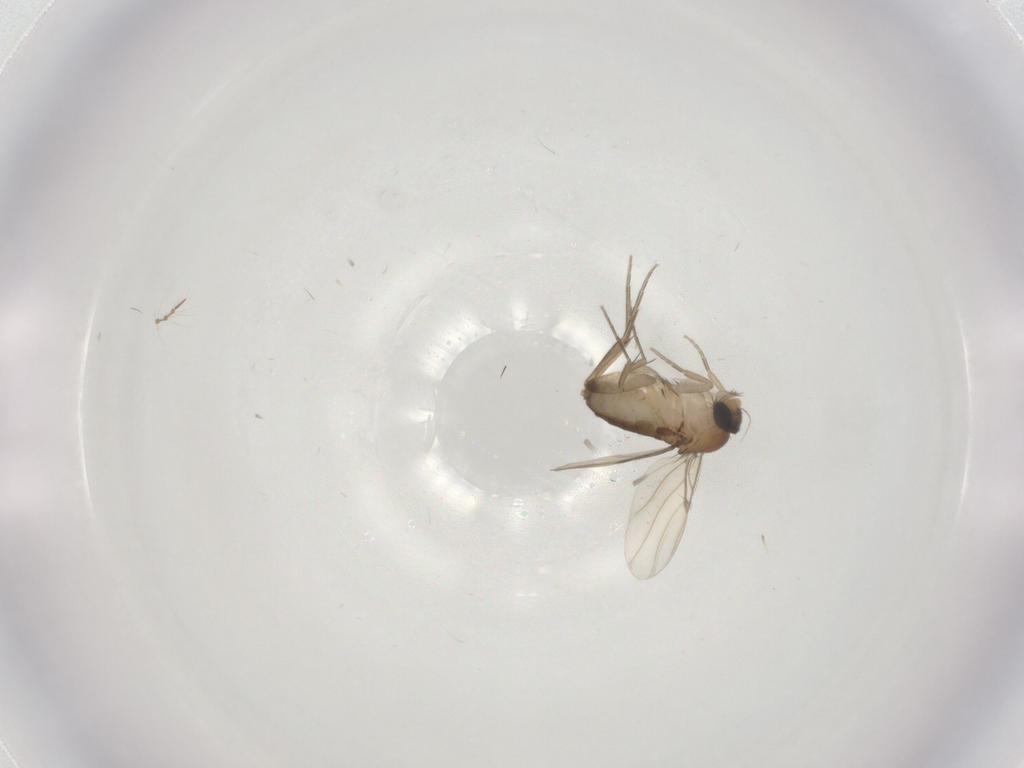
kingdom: Animalia
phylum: Arthropoda
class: Insecta
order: Diptera
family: Phoridae
